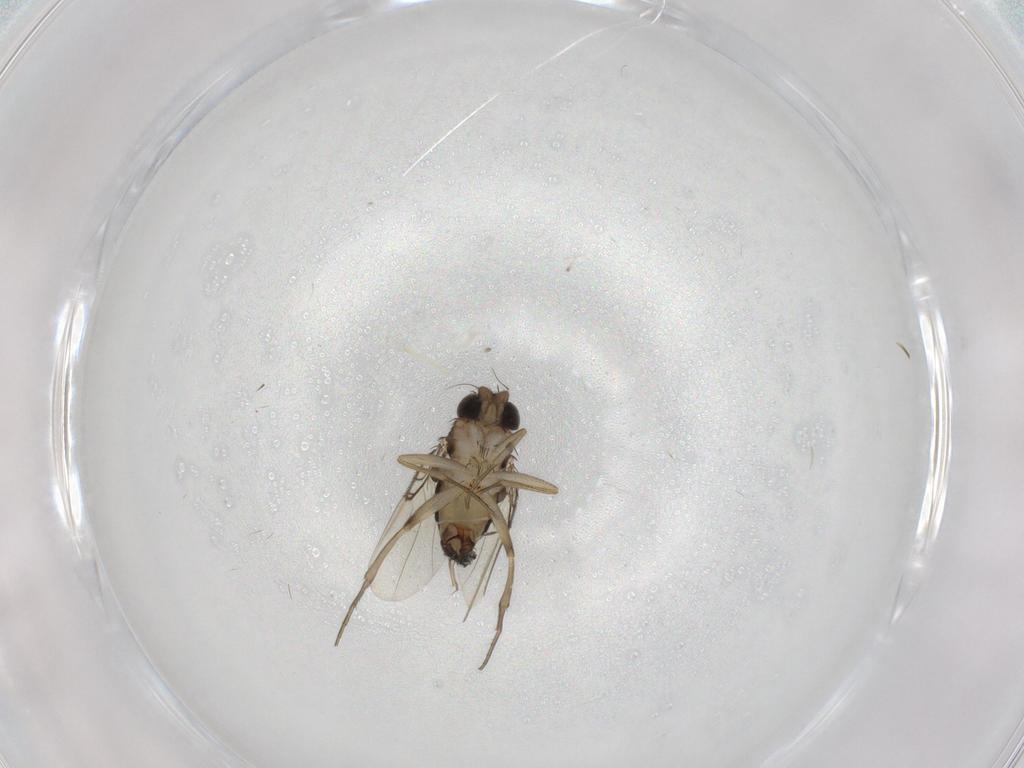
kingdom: Animalia
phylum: Arthropoda
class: Insecta
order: Diptera
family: Phoridae
